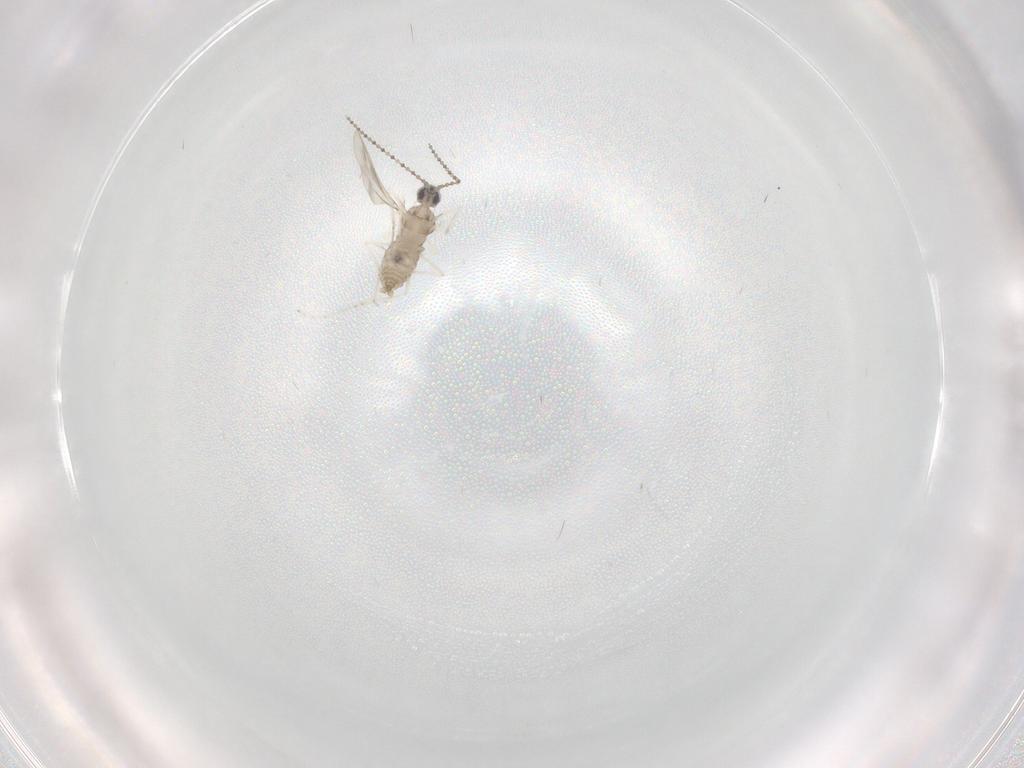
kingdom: Animalia
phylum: Arthropoda
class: Insecta
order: Diptera
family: Cecidomyiidae
